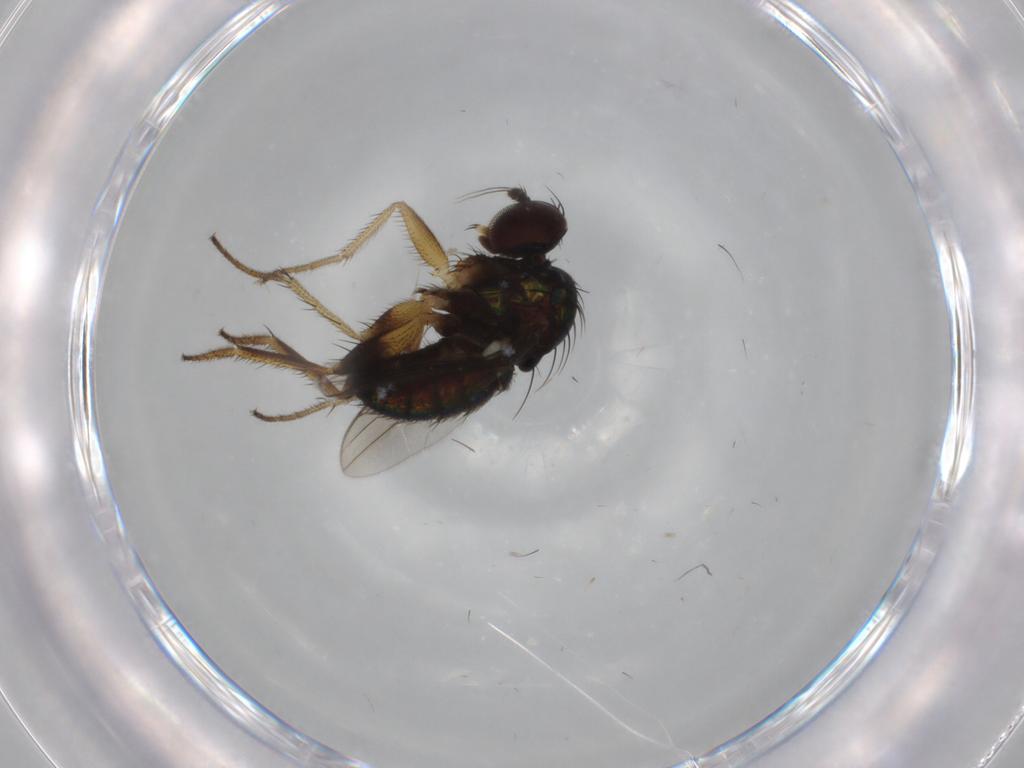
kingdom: Animalia
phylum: Arthropoda
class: Insecta
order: Diptera
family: Dolichopodidae
